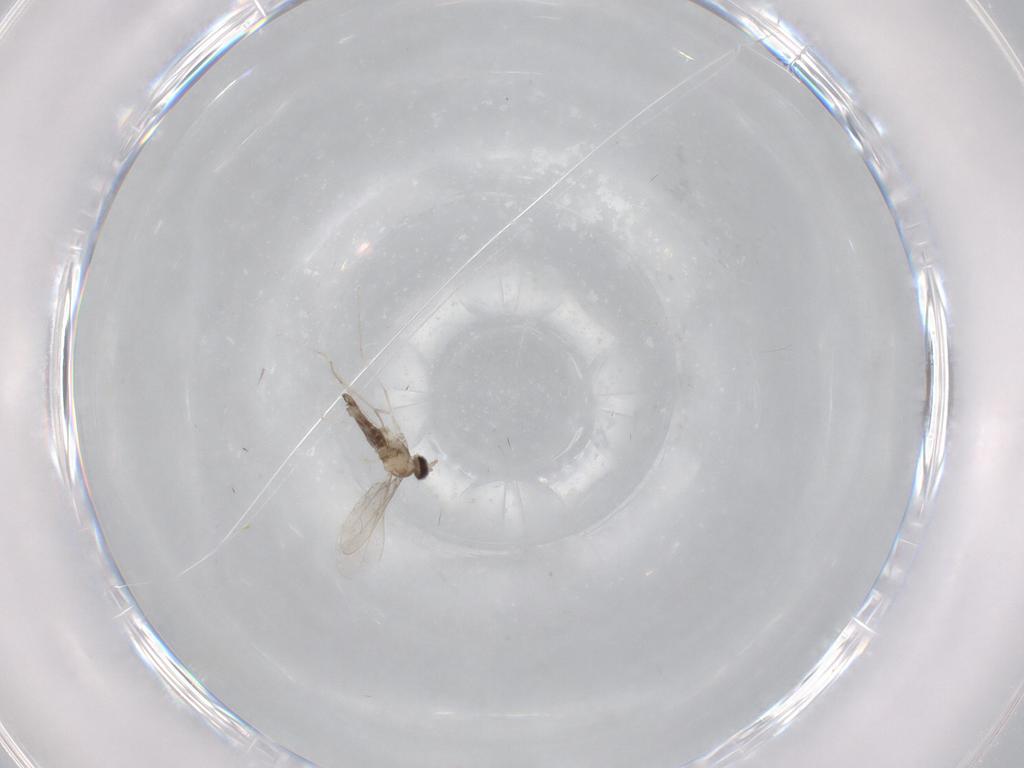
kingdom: Animalia
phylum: Arthropoda
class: Insecta
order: Diptera
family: Cecidomyiidae
